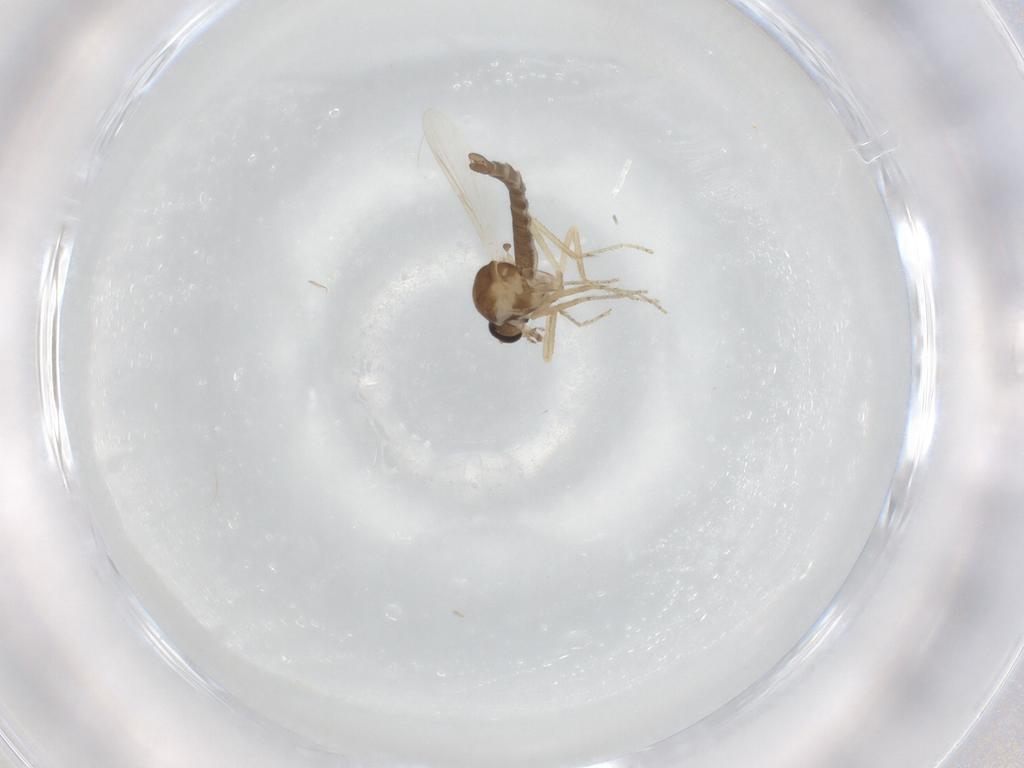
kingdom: Animalia
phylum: Arthropoda
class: Insecta
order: Diptera
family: Ceratopogonidae
